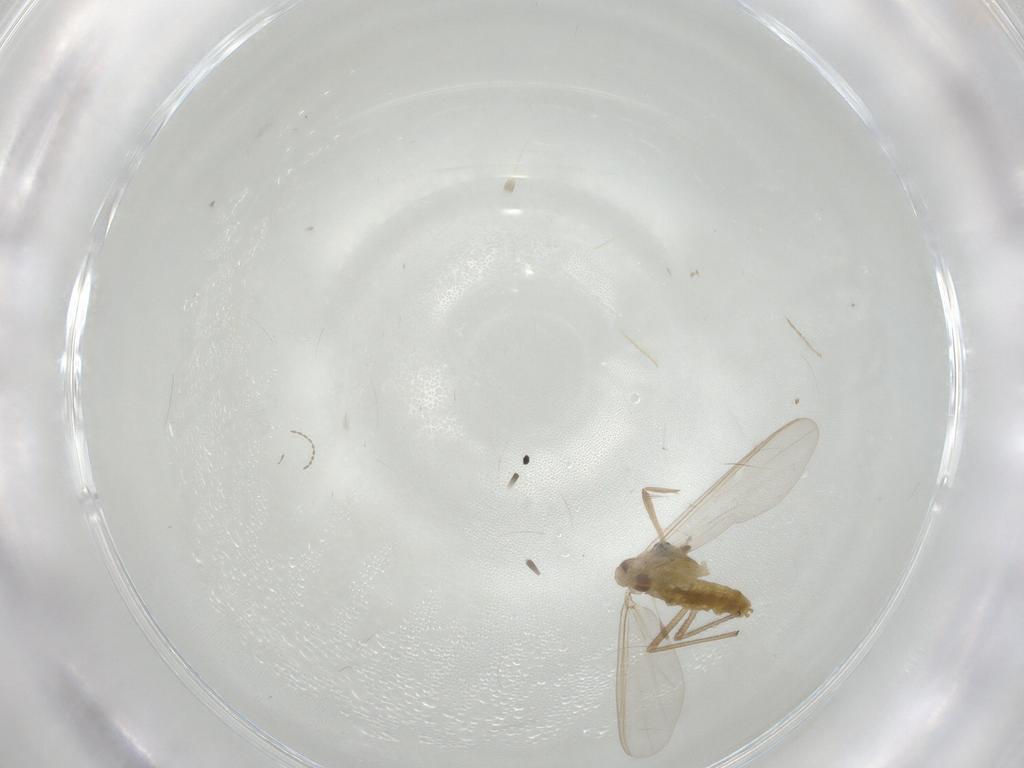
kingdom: Animalia
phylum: Arthropoda
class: Insecta
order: Diptera
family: Chironomidae
